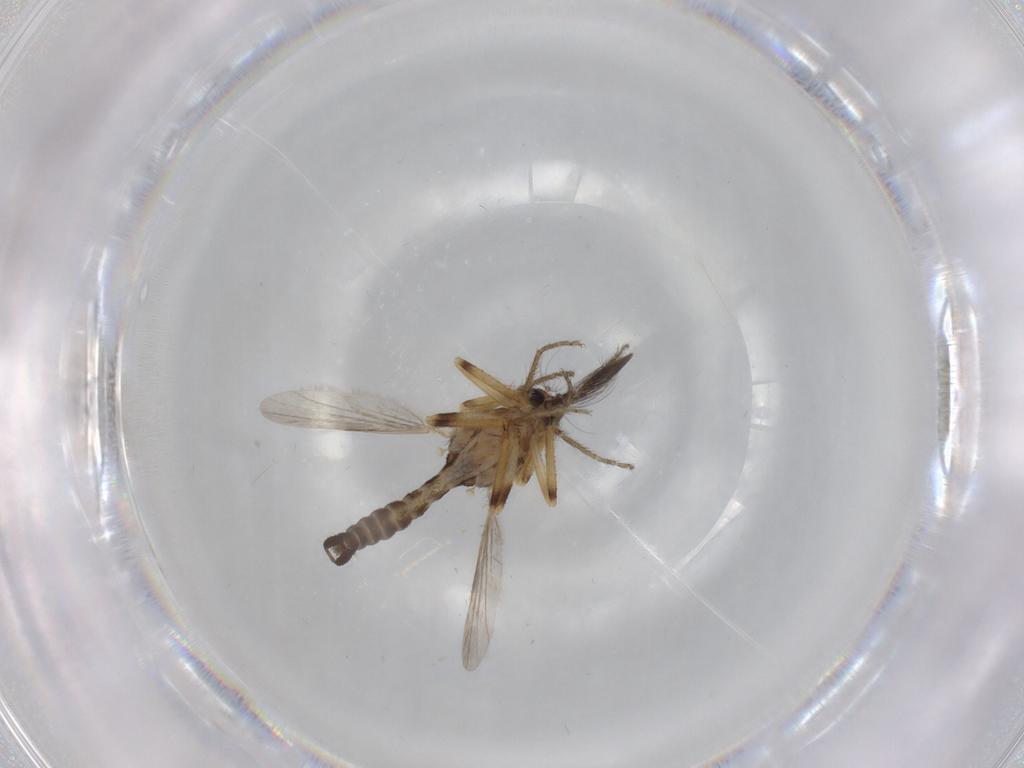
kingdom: Animalia
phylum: Arthropoda
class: Insecta
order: Diptera
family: Ceratopogonidae
